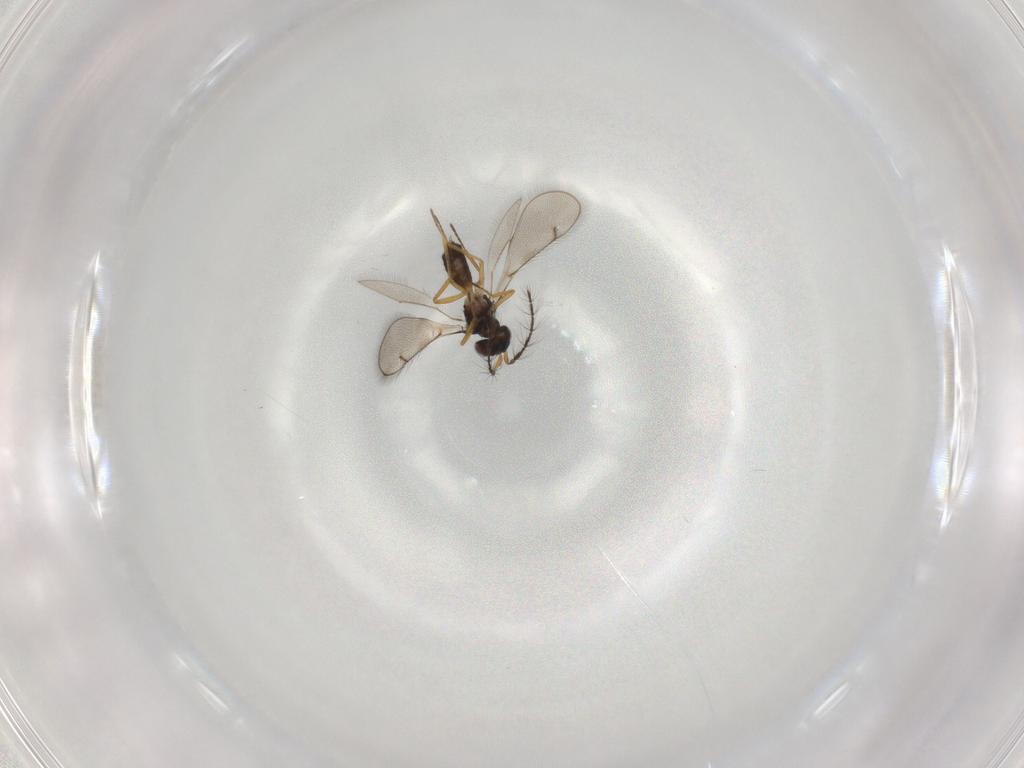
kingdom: Animalia
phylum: Arthropoda
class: Insecta
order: Hymenoptera
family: Eulophidae
